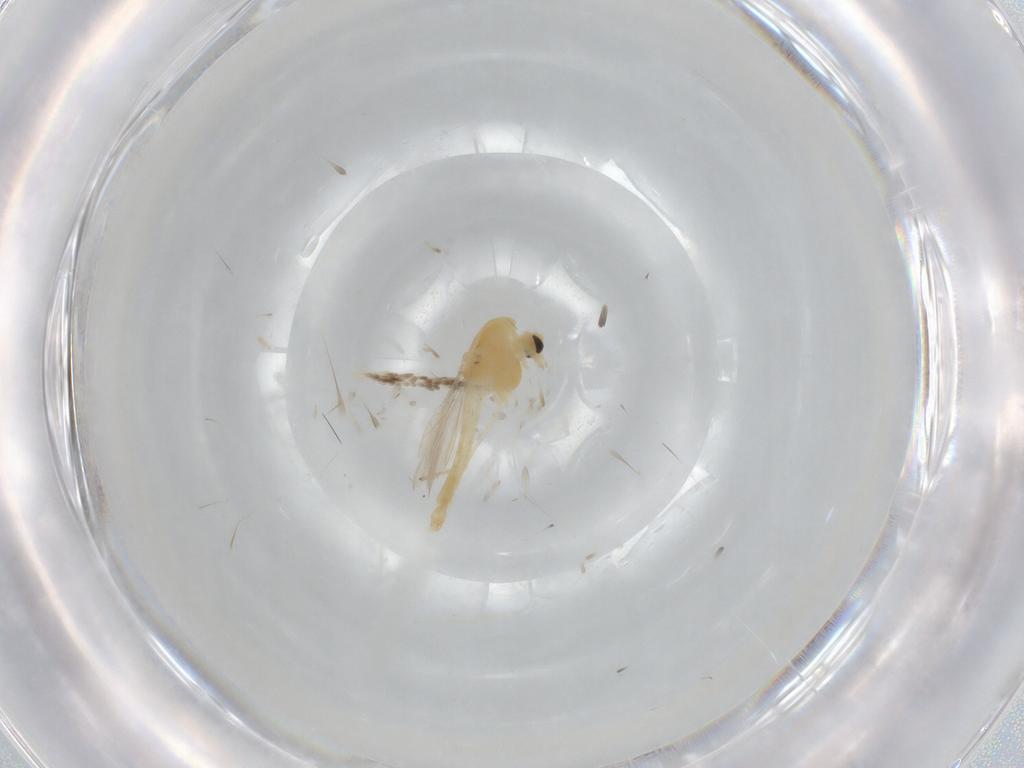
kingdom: Animalia
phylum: Arthropoda
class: Insecta
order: Diptera
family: Chironomidae
